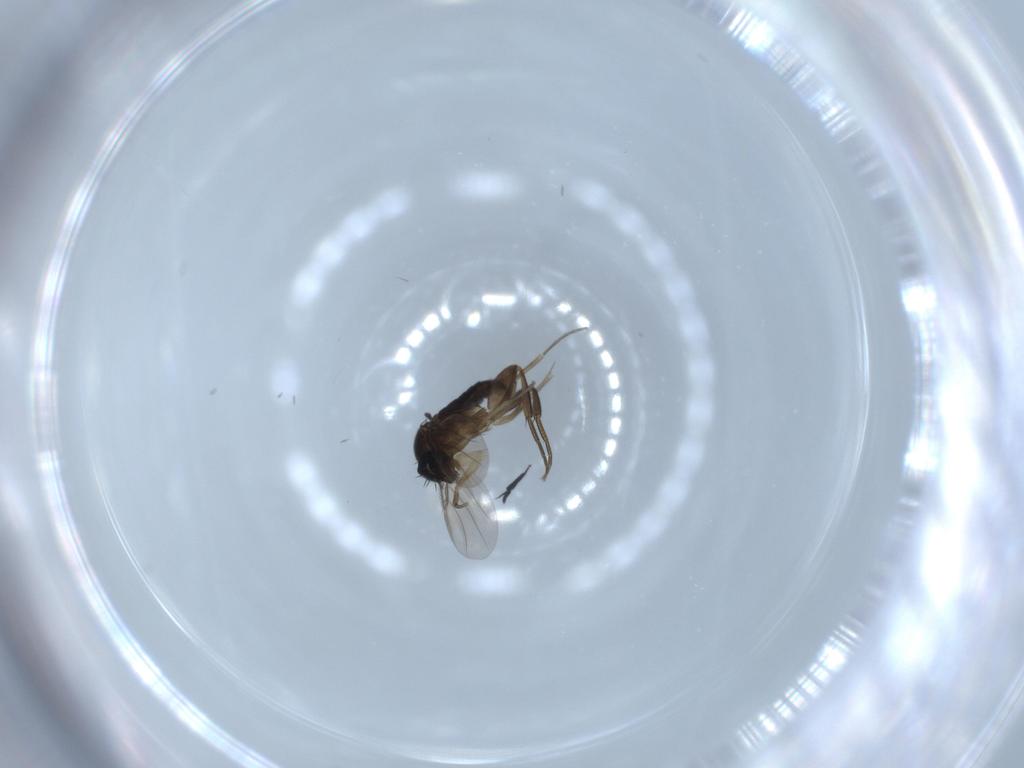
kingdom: Animalia
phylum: Arthropoda
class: Insecta
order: Diptera
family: Phoridae
